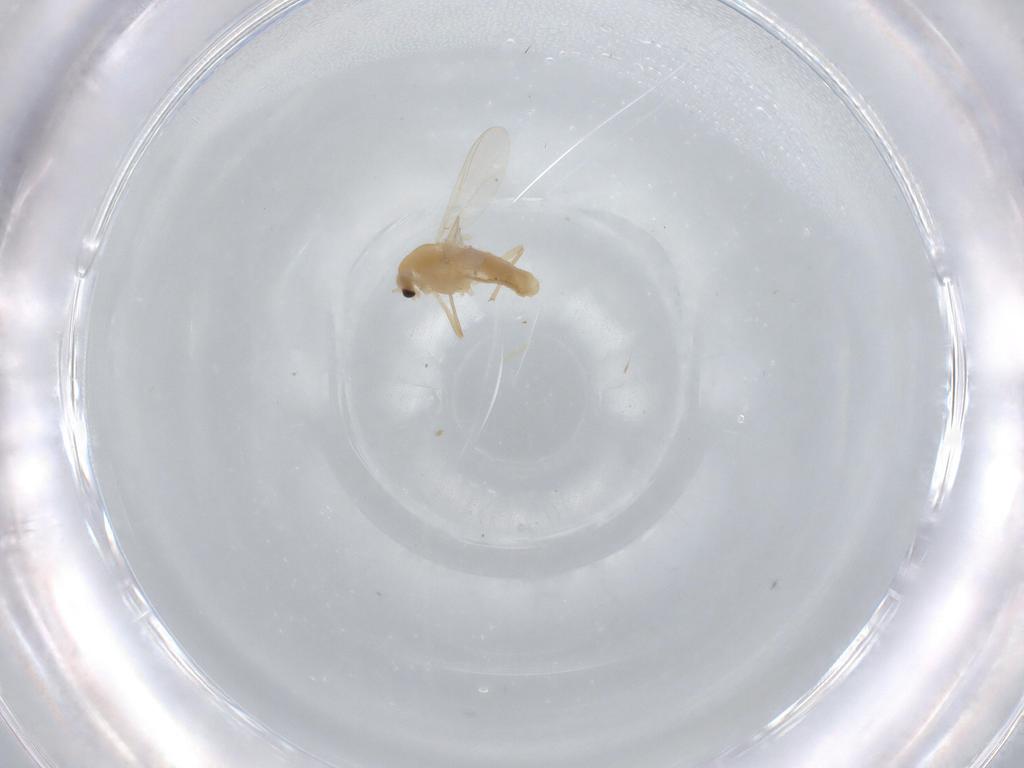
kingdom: Animalia
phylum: Arthropoda
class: Insecta
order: Diptera
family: Chironomidae
